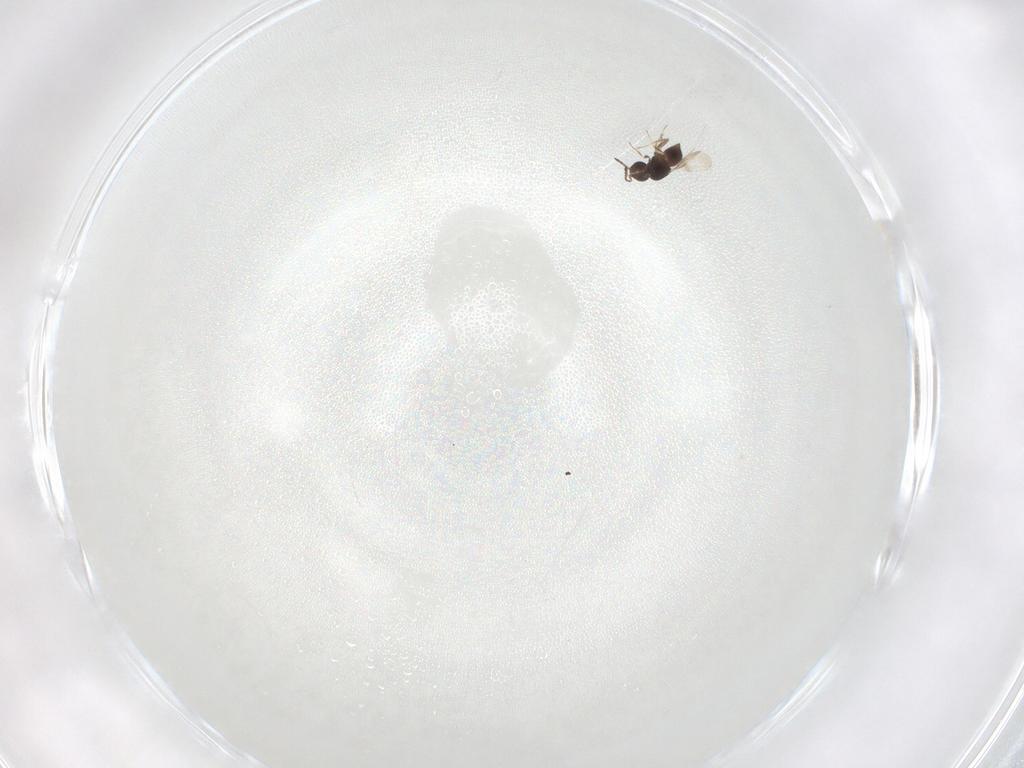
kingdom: Animalia
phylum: Arthropoda
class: Insecta
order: Hymenoptera
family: Ceraphronidae
